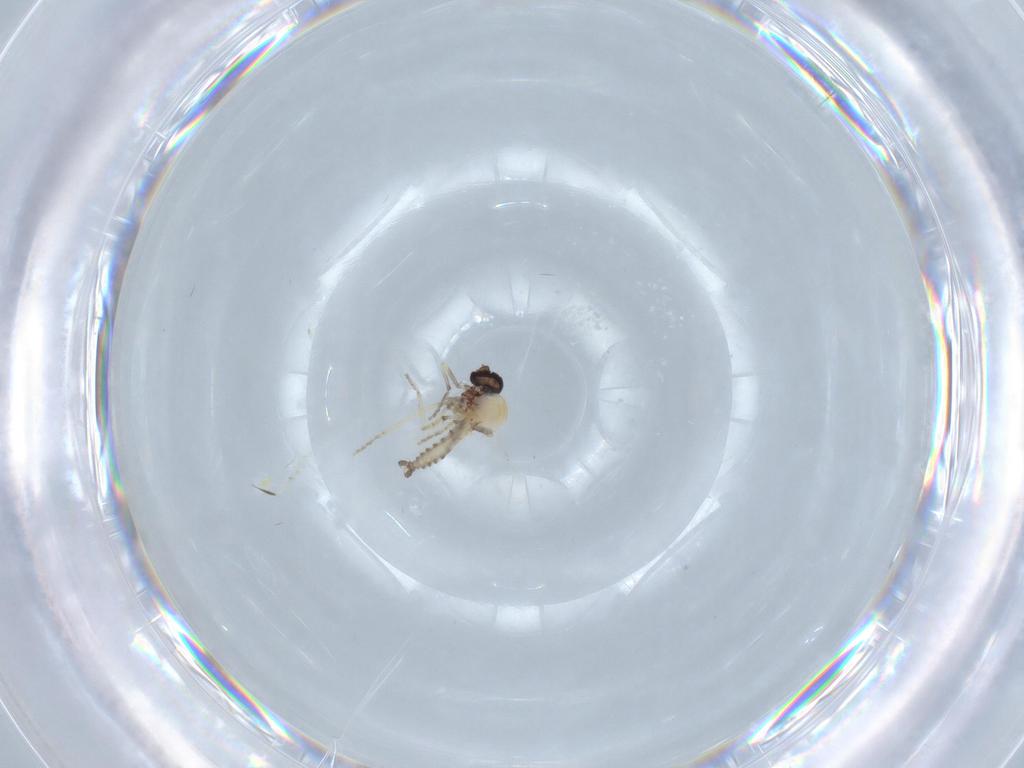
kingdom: Animalia
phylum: Arthropoda
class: Insecta
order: Diptera
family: Ceratopogonidae
